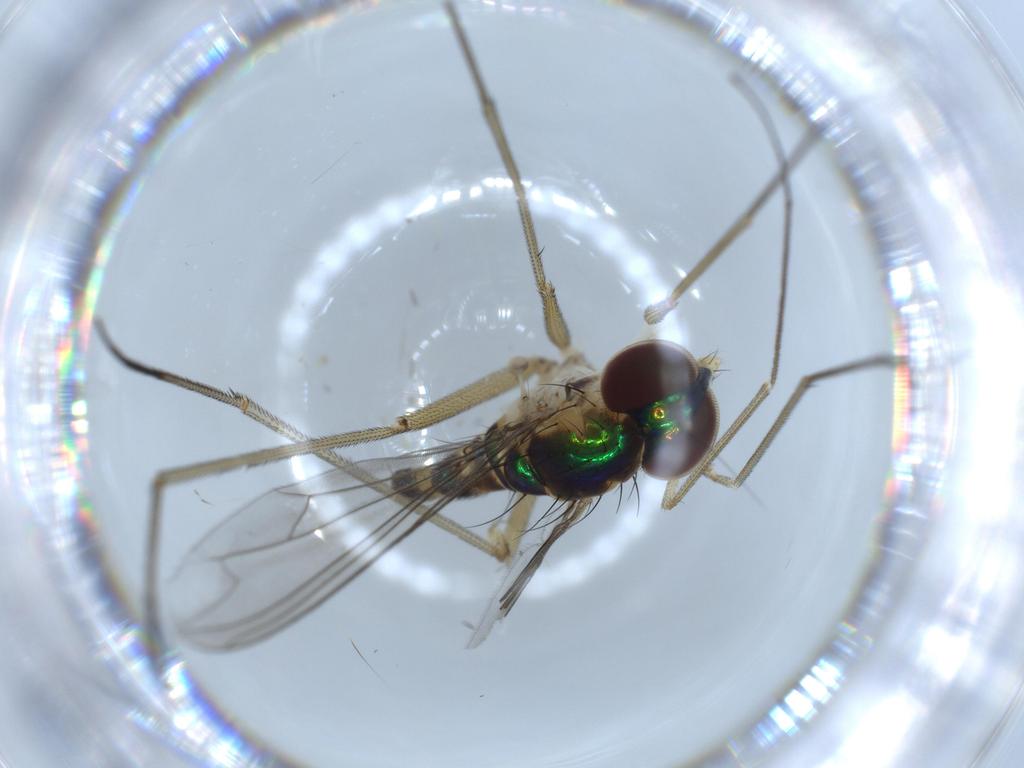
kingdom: Animalia
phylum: Arthropoda
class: Insecta
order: Diptera
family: Dolichopodidae
